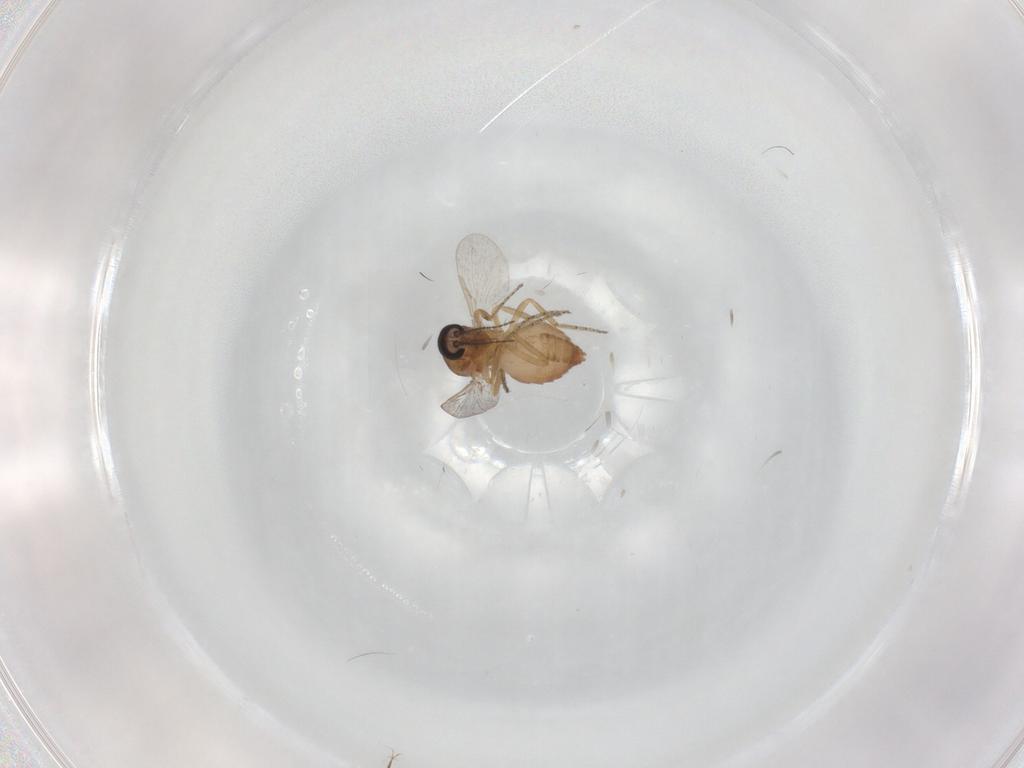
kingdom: Animalia
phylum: Arthropoda
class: Insecta
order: Diptera
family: Ceratopogonidae
